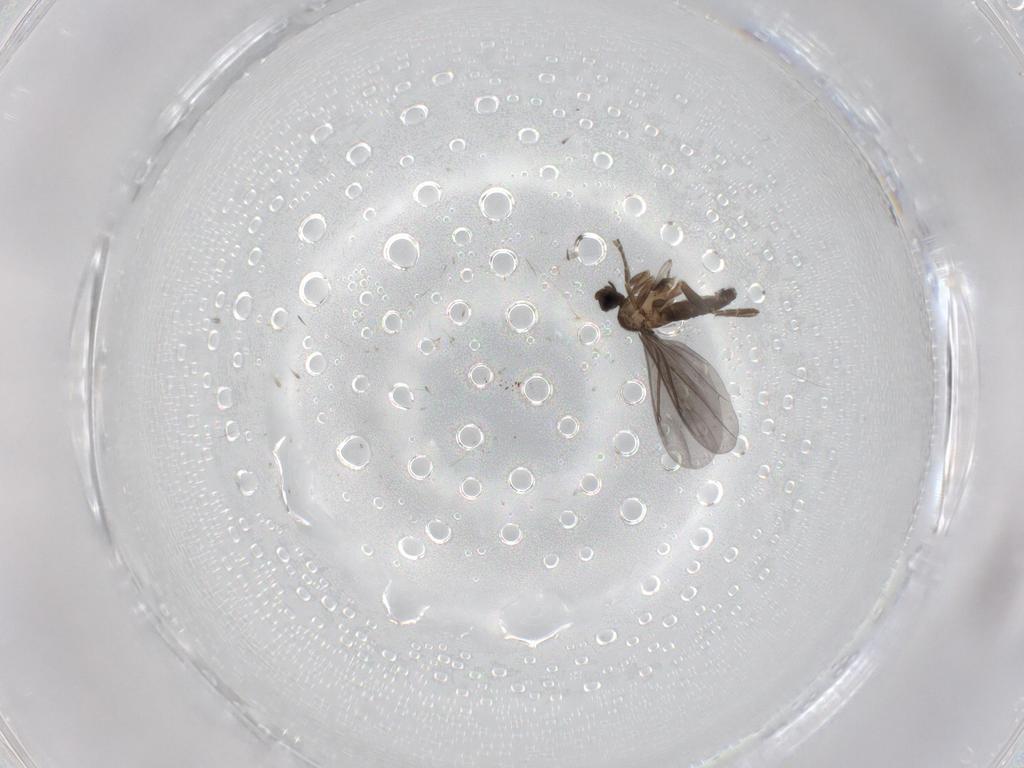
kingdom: Animalia
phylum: Arthropoda
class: Insecta
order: Diptera
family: Phoridae
